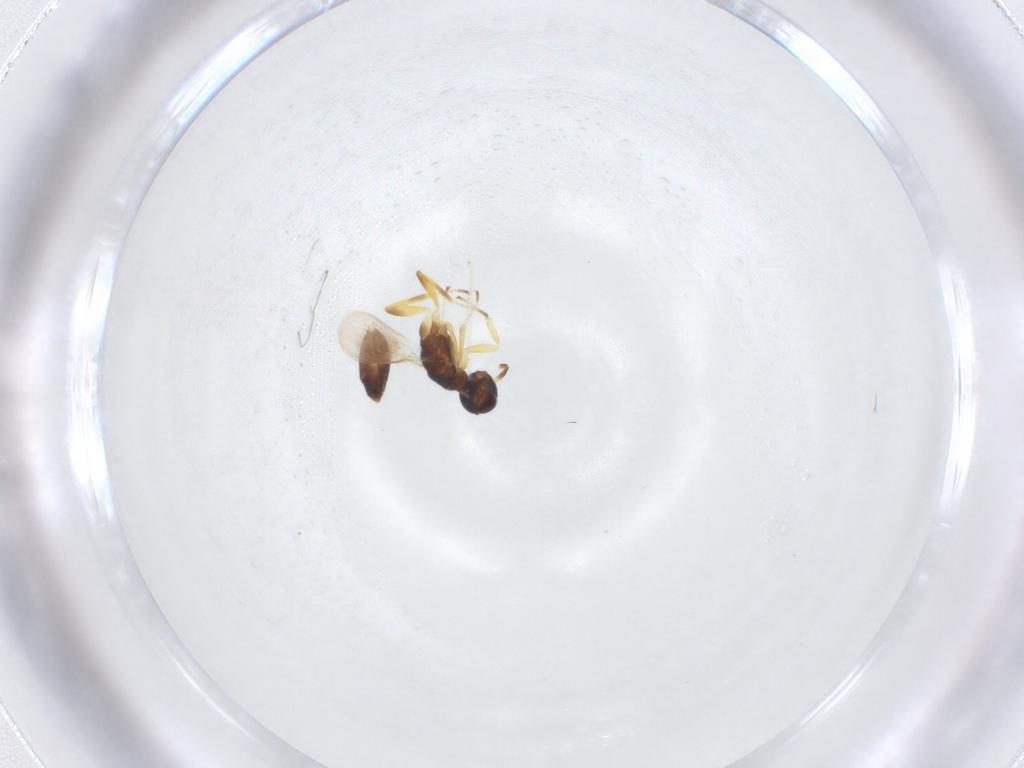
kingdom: Animalia
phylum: Arthropoda
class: Insecta
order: Hymenoptera
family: Eupelmidae
